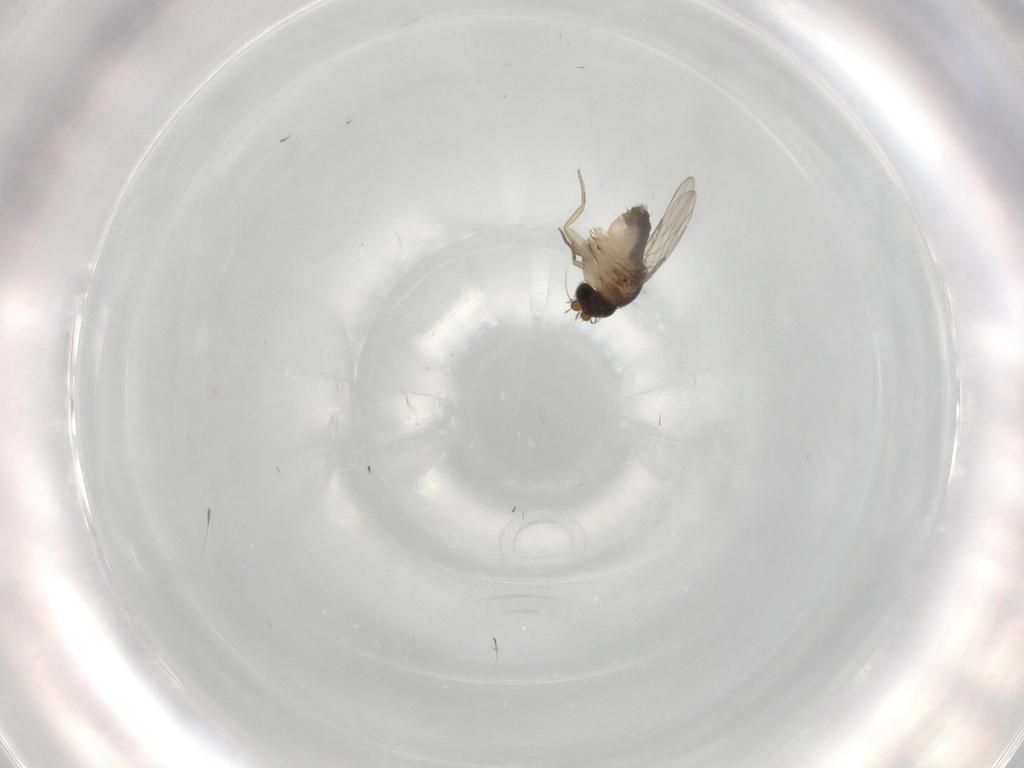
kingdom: Animalia
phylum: Arthropoda
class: Insecta
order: Diptera
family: Phoridae
